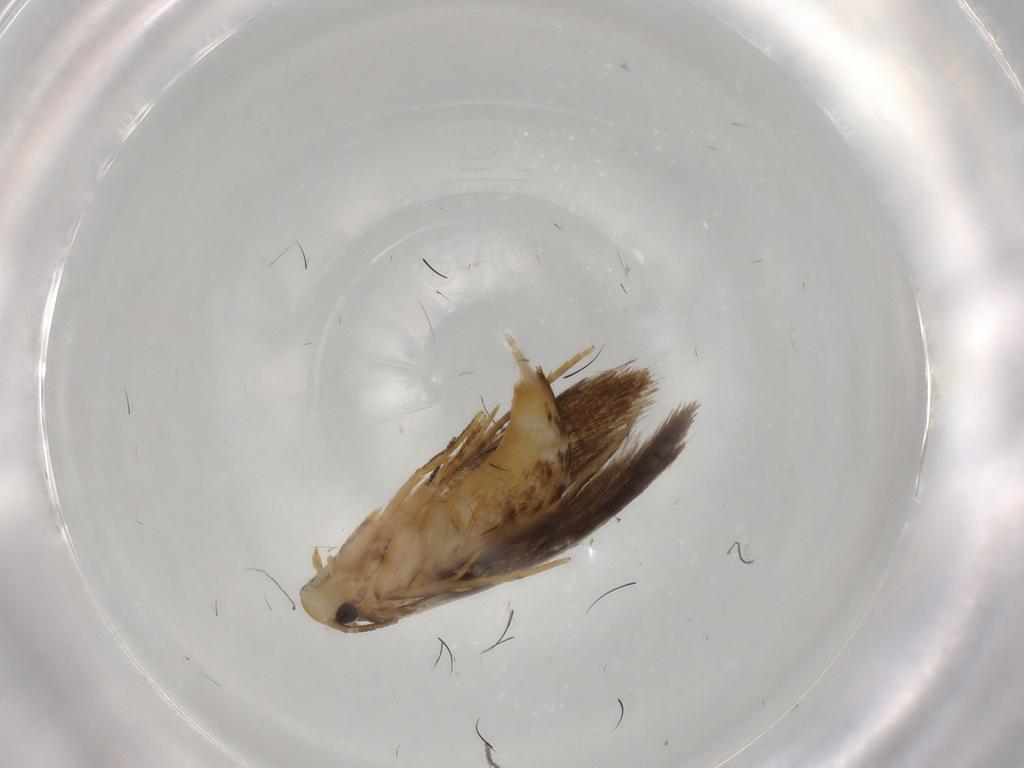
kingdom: Animalia
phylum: Arthropoda
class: Insecta
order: Lepidoptera
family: Tineidae
